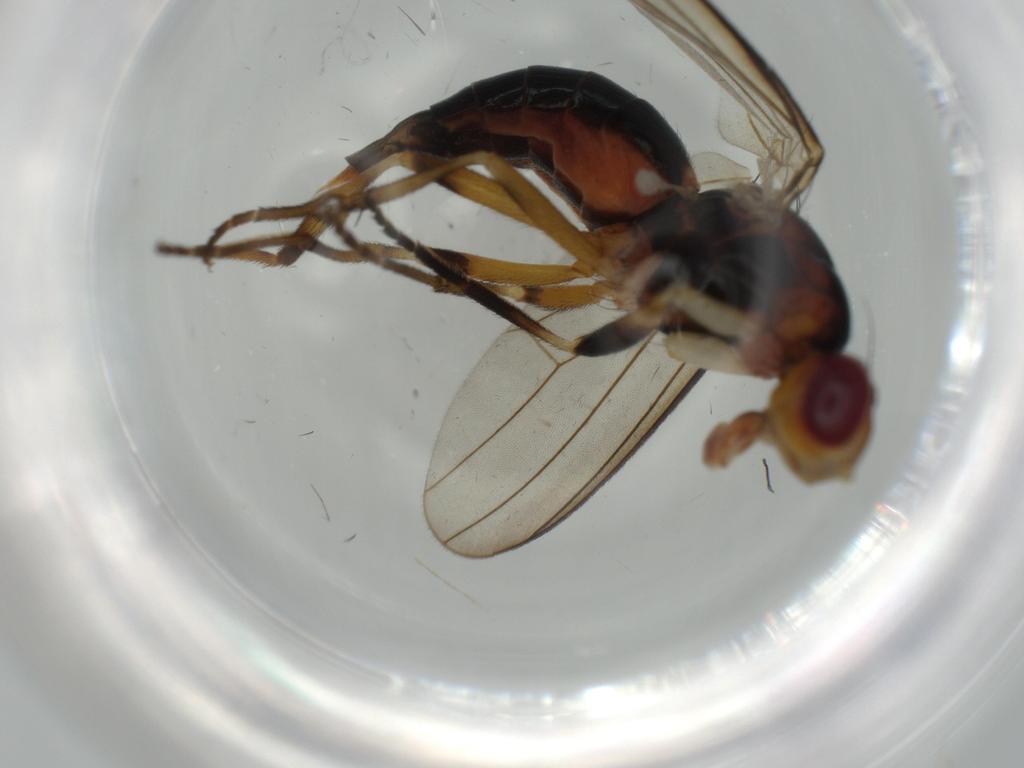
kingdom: Animalia
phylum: Arthropoda
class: Insecta
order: Diptera
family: Piophilidae
